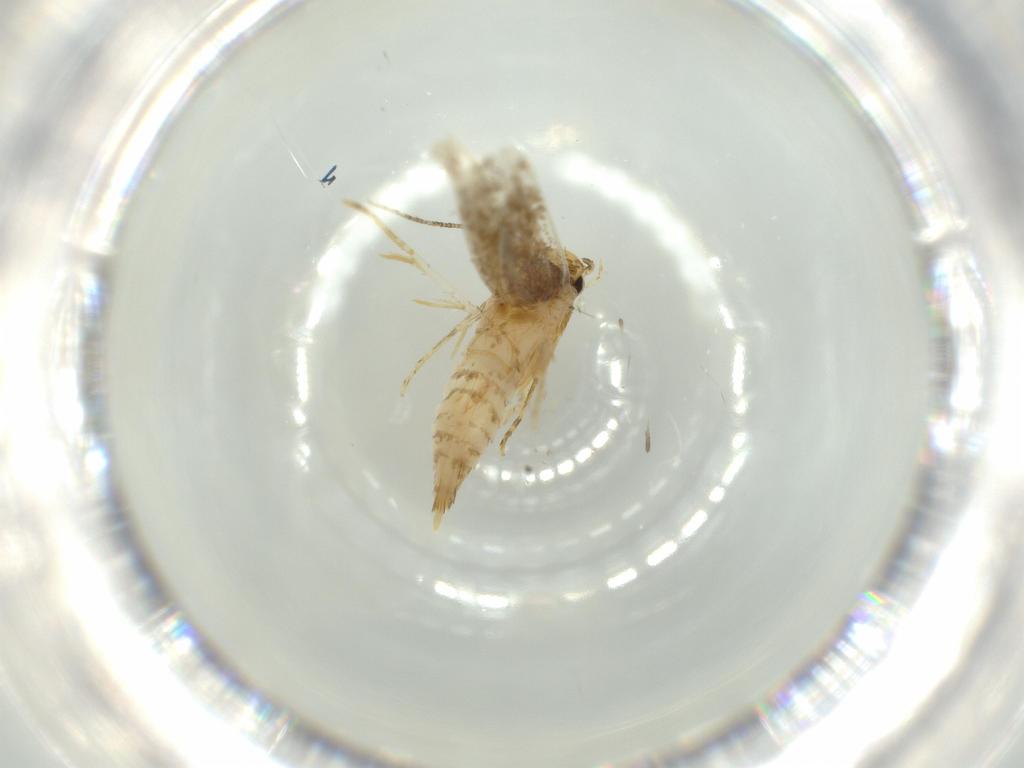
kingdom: Animalia
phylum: Arthropoda
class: Insecta
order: Lepidoptera
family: Tineidae
